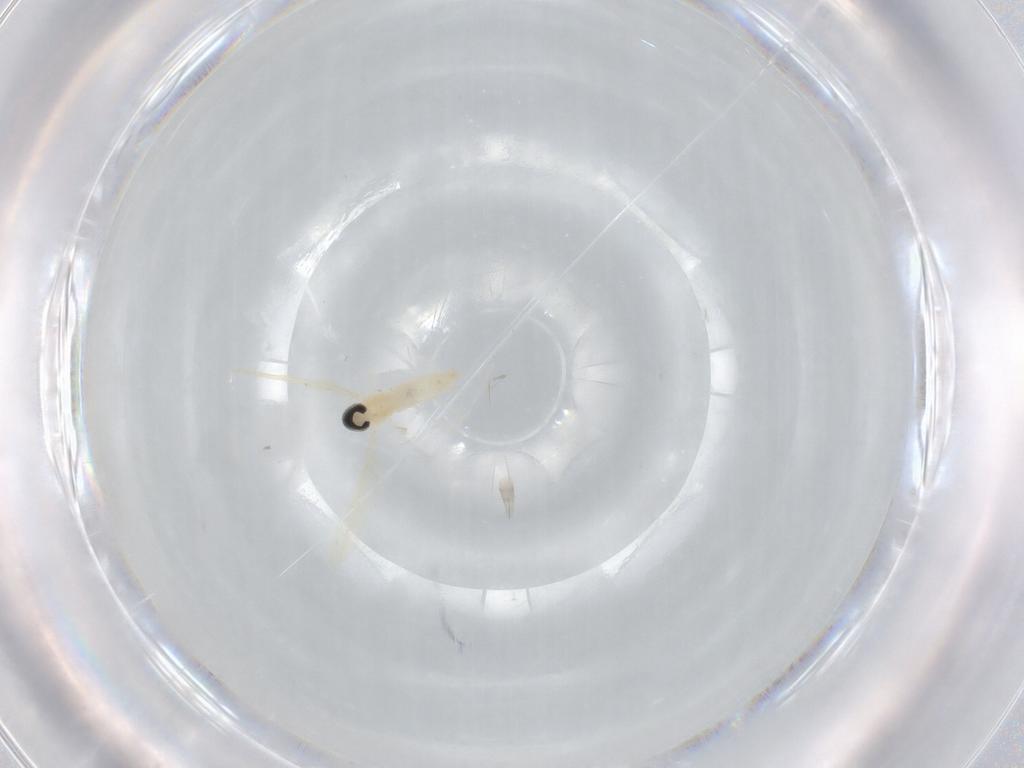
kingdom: Animalia
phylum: Arthropoda
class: Insecta
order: Diptera
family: Cecidomyiidae
